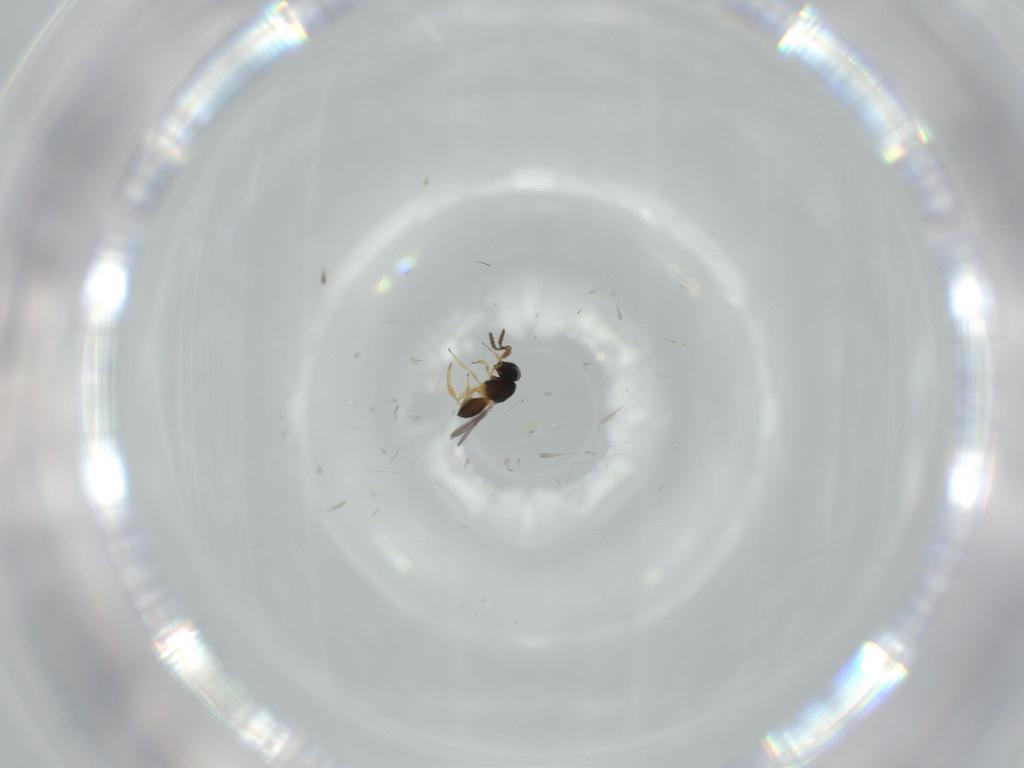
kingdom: Animalia
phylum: Arthropoda
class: Insecta
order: Hymenoptera
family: Scelionidae
